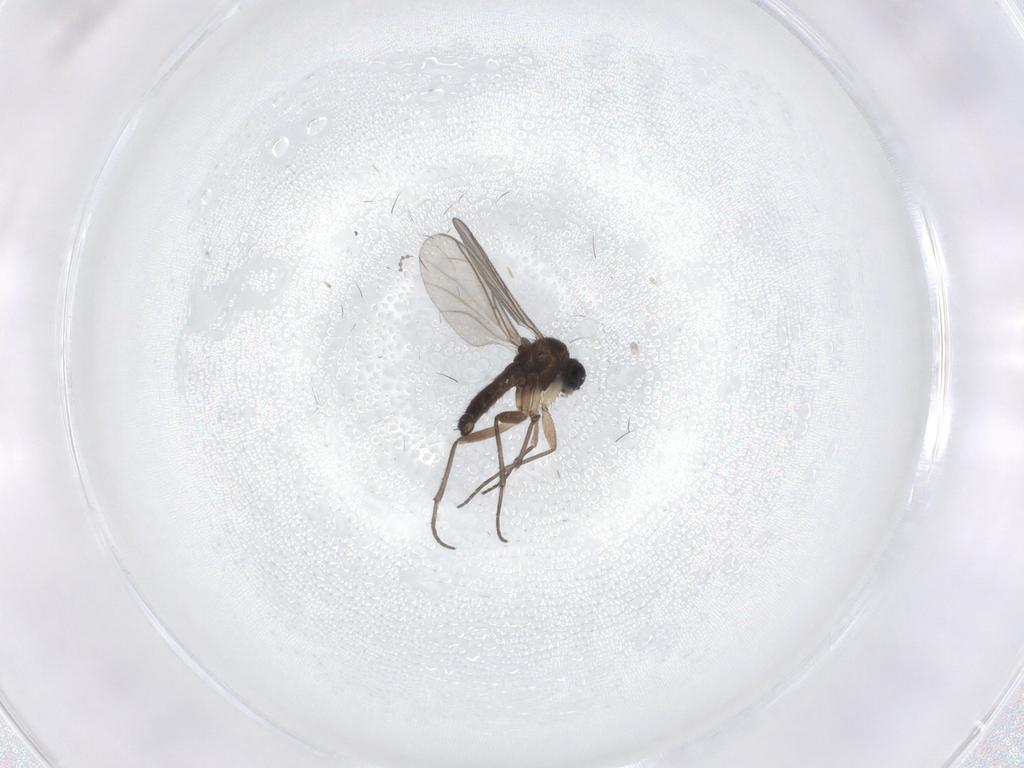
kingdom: Animalia
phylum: Arthropoda
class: Insecta
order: Diptera
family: Sciaridae
